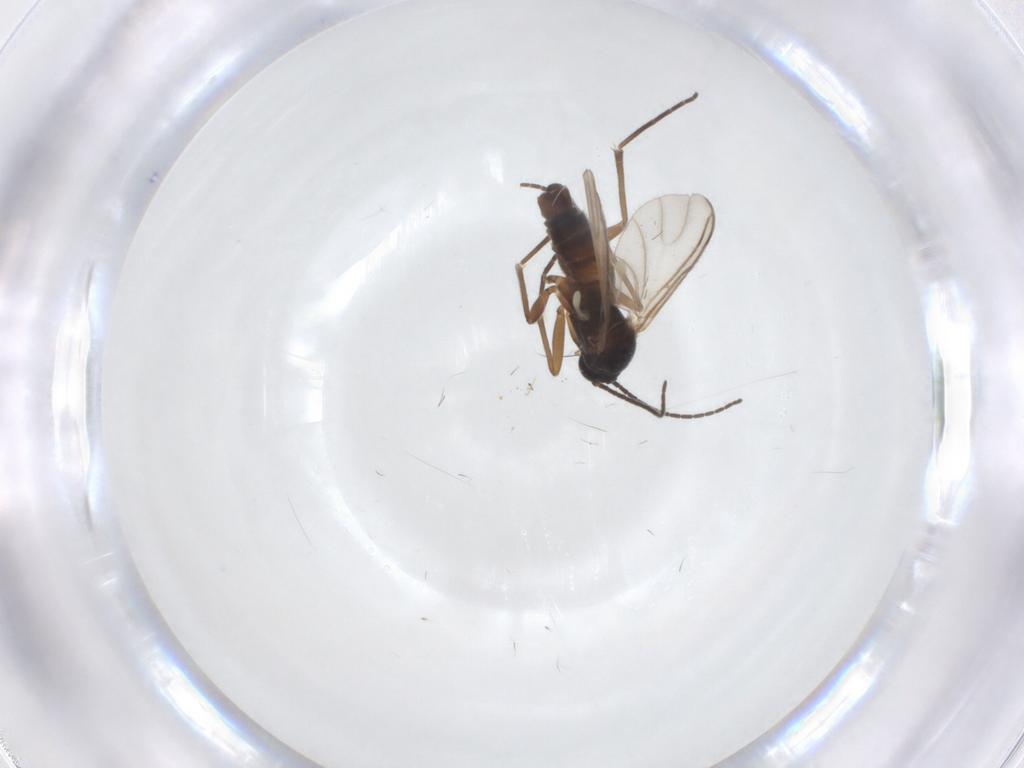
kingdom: Animalia
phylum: Arthropoda
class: Insecta
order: Diptera
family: Sciaridae
